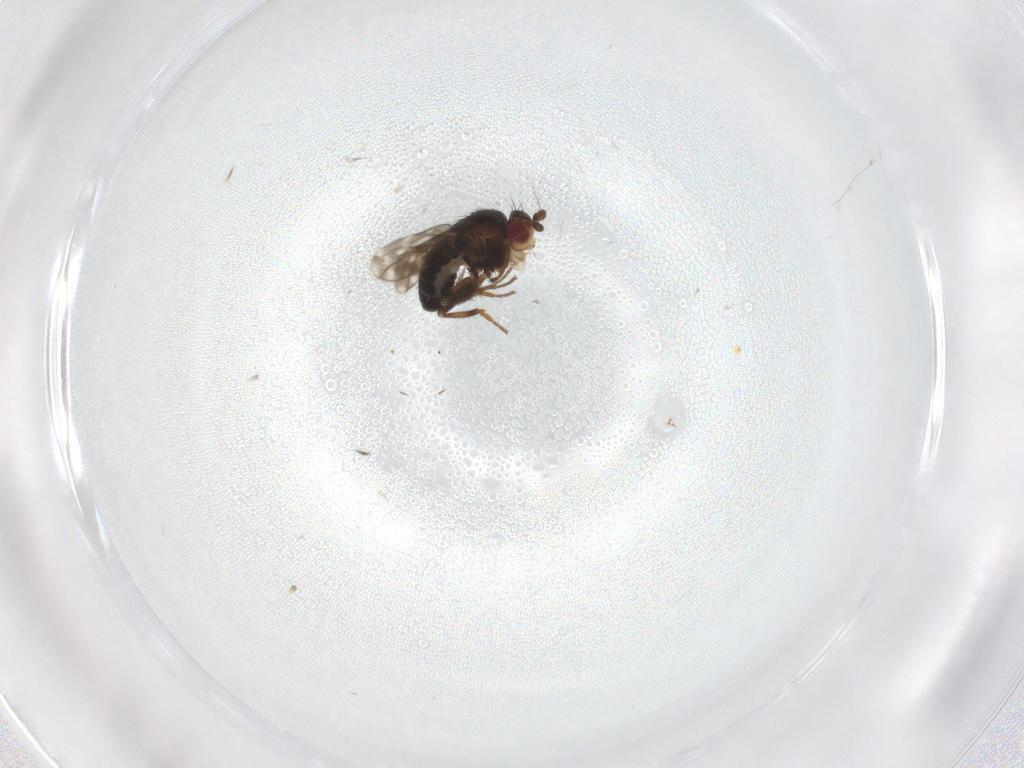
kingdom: Animalia
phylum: Arthropoda
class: Insecta
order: Diptera
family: Sphaeroceridae
